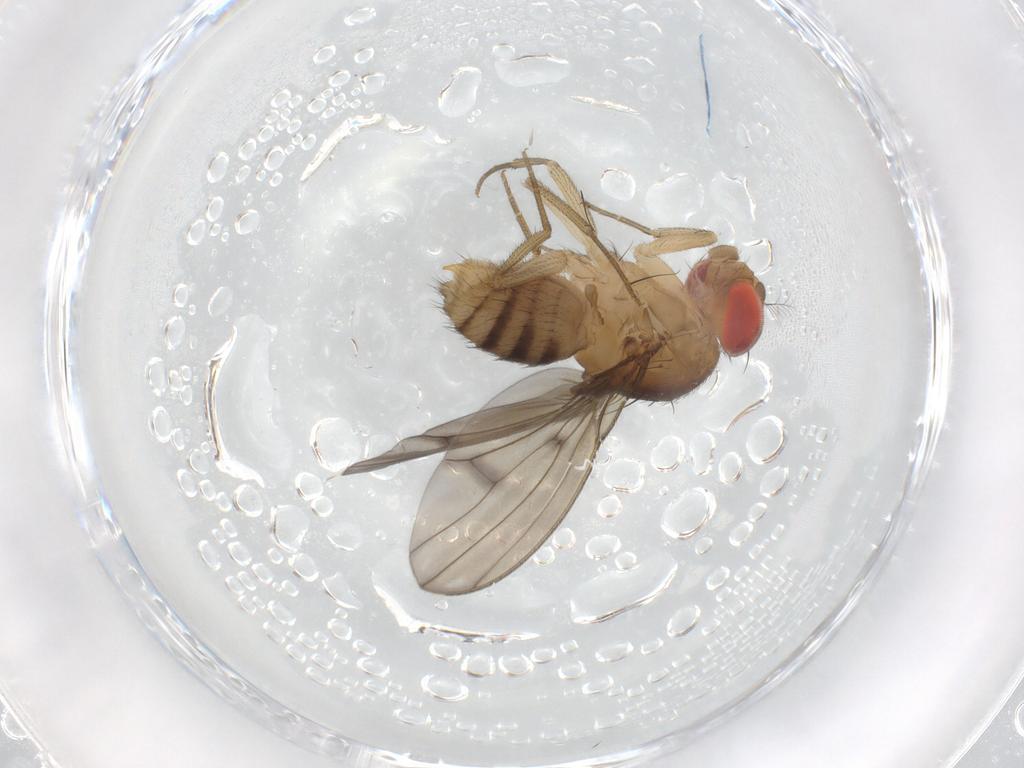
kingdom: Animalia
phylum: Arthropoda
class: Insecta
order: Diptera
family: Drosophilidae
